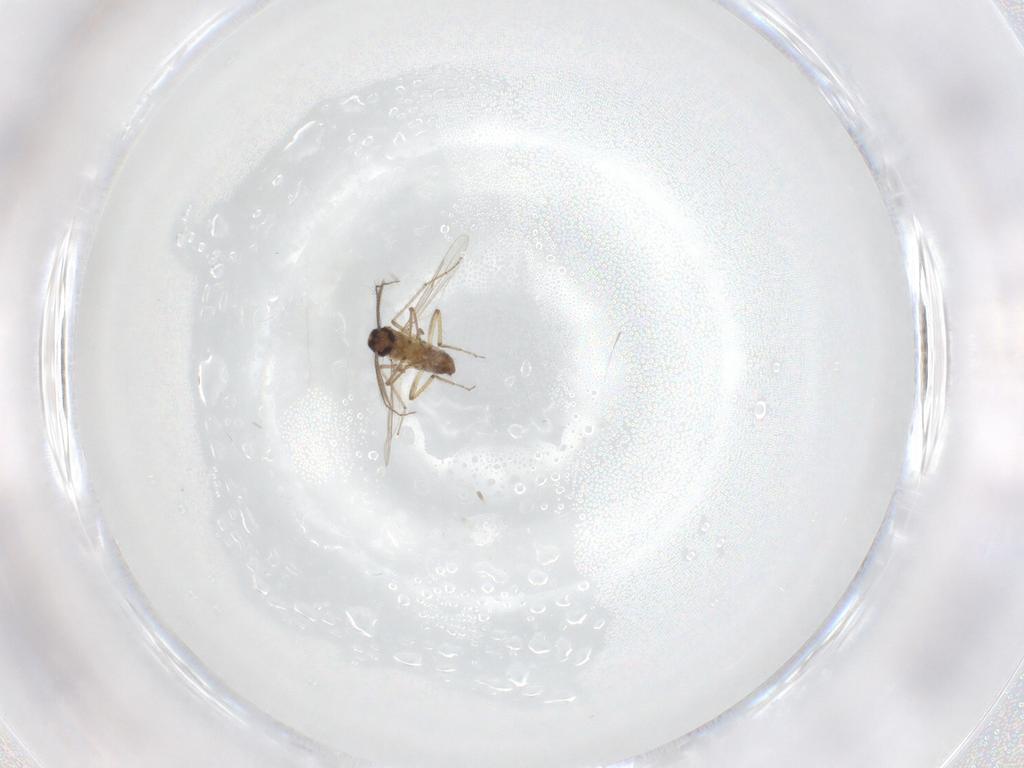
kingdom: Animalia
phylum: Arthropoda
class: Insecta
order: Diptera
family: Ceratopogonidae
